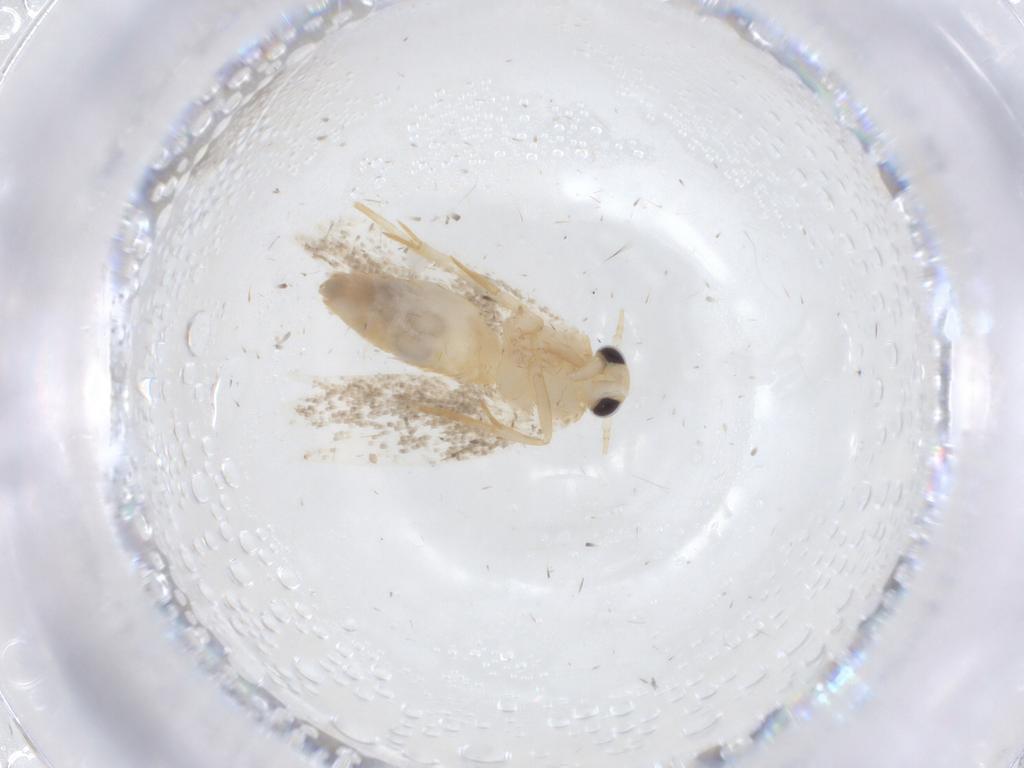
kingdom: Animalia
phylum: Arthropoda
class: Insecta
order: Lepidoptera
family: Erebidae
